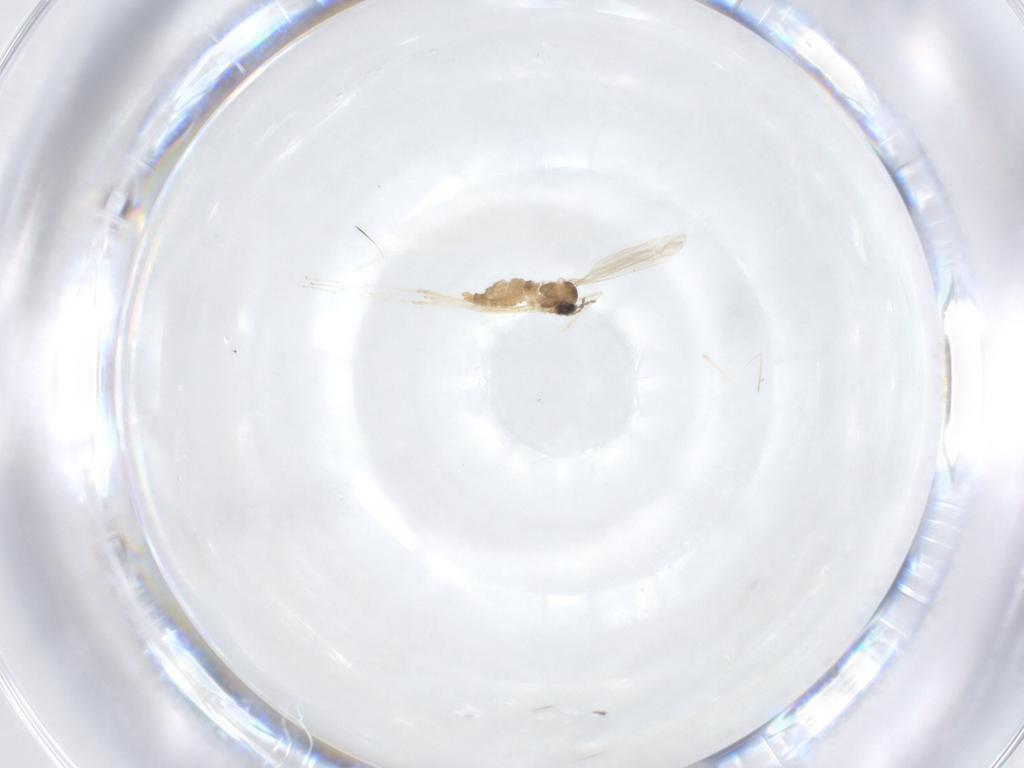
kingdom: Animalia
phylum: Arthropoda
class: Insecta
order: Diptera
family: Cecidomyiidae
